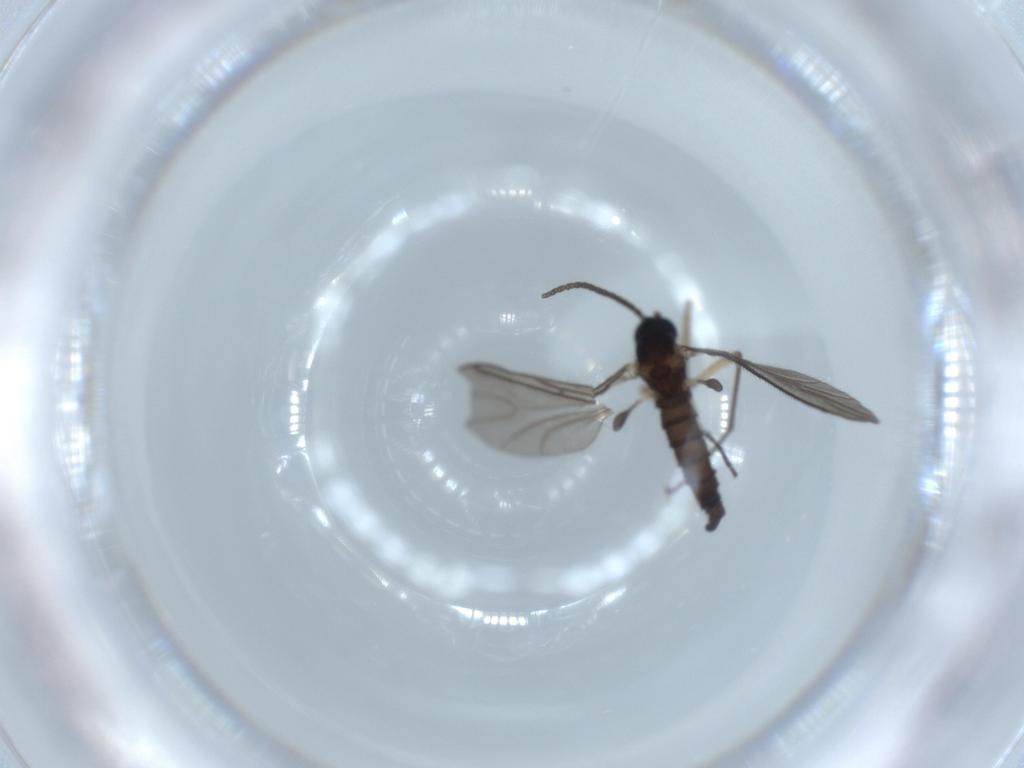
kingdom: Animalia
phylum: Arthropoda
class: Insecta
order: Diptera
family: Sciaridae
